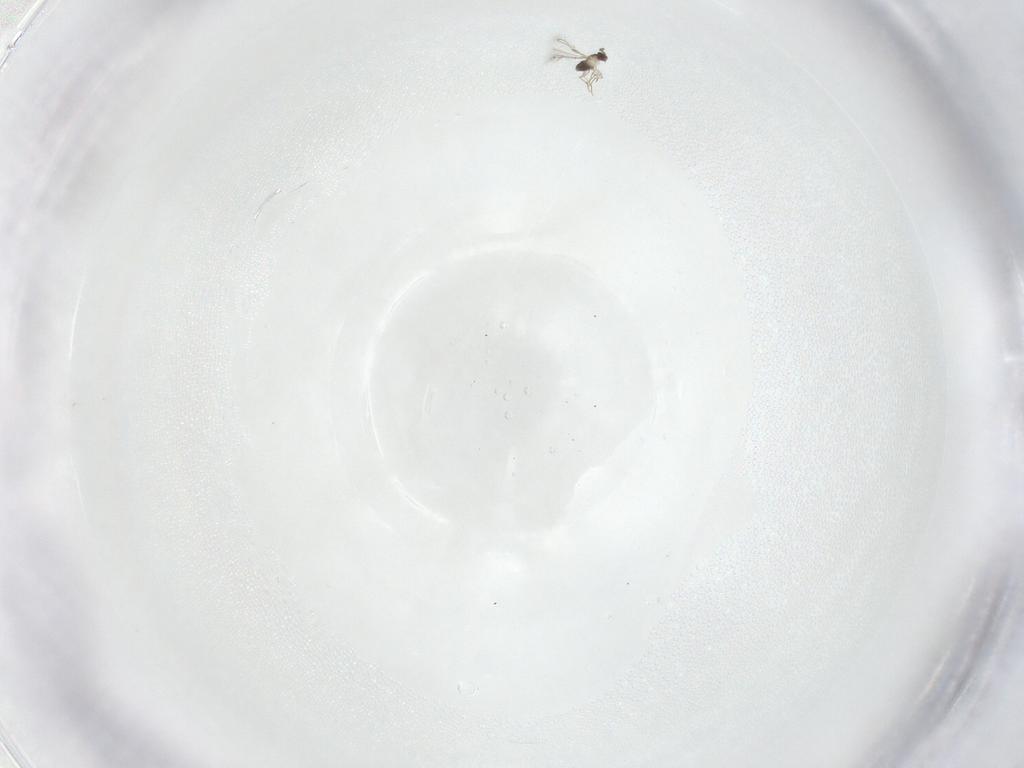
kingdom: Animalia
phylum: Arthropoda
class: Insecta
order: Hymenoptera
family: Mymaridae
